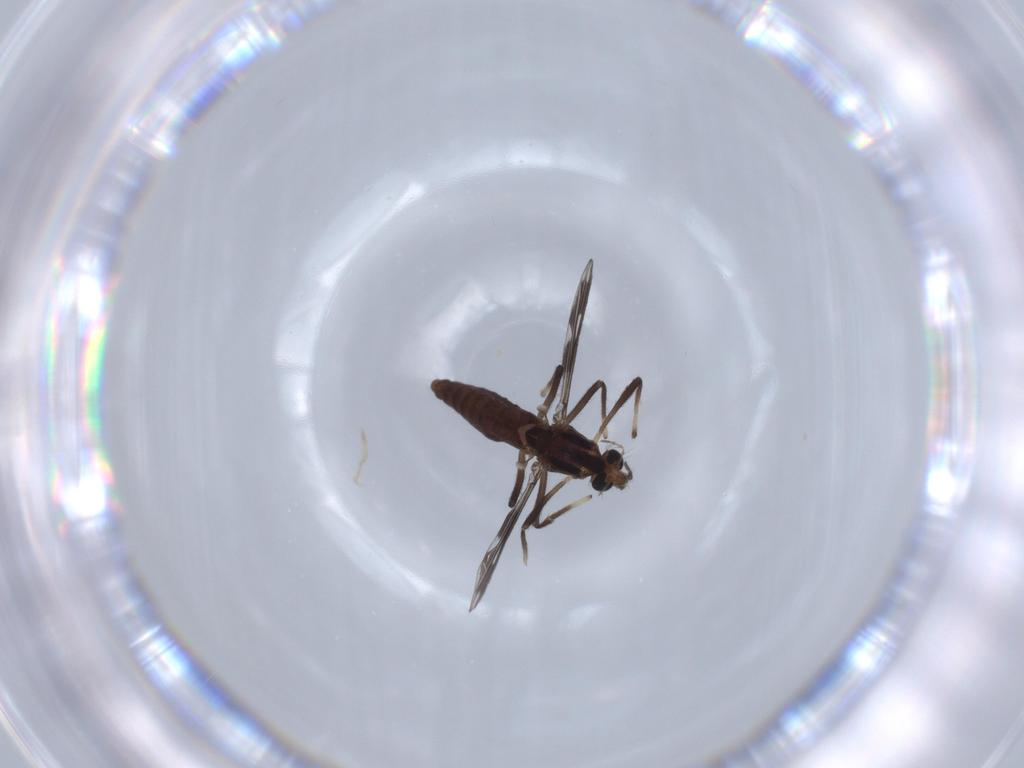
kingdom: Animalia
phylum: Arthropoda
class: Insecta
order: Diptera
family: Chironomidae
